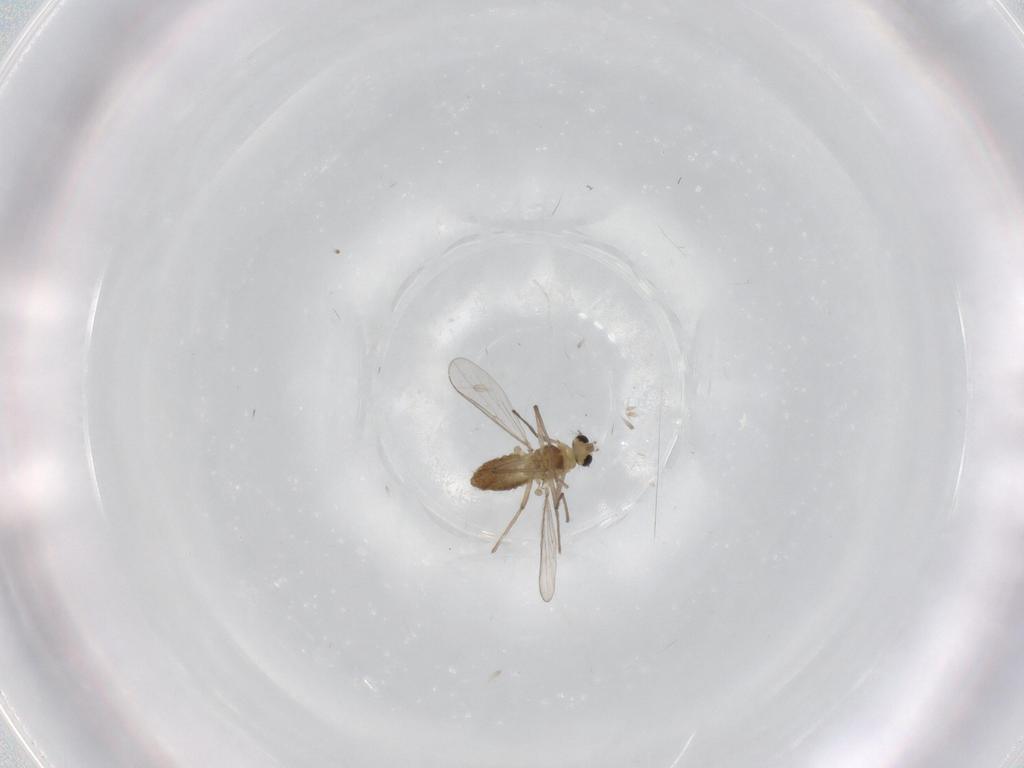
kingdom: Animalia
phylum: Arthropoda
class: Insecta
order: Diptera
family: Chironomidae
